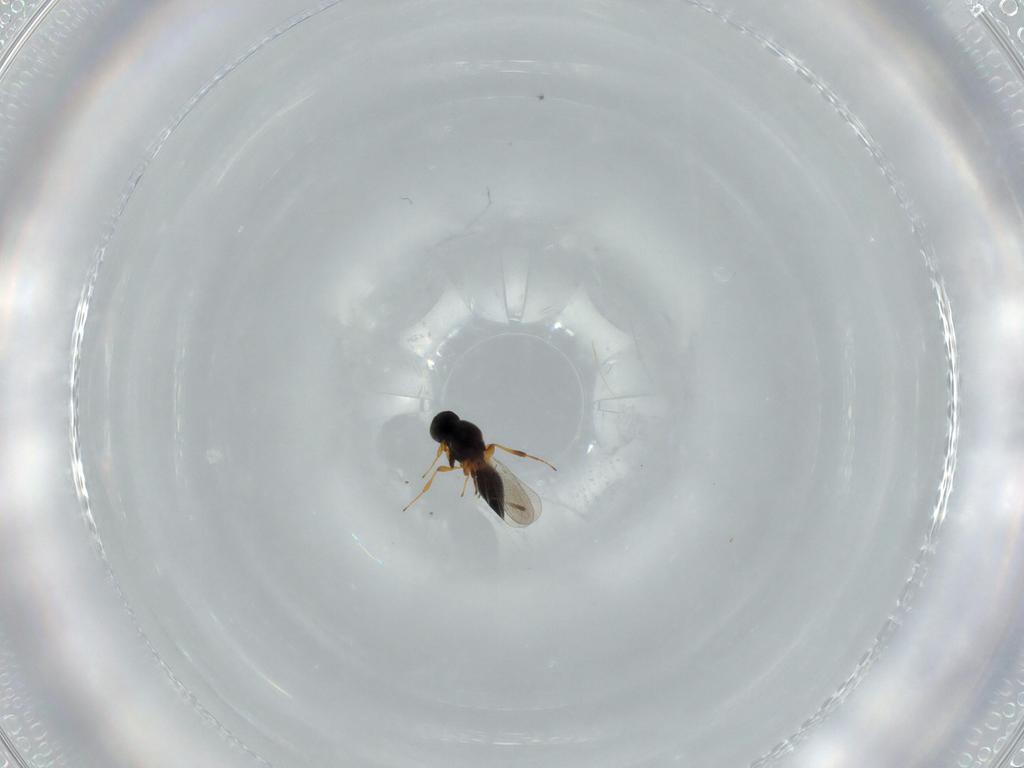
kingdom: Animalia
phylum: Arthropoda
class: Insecta
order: Hymenoptera
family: Platygastridae
